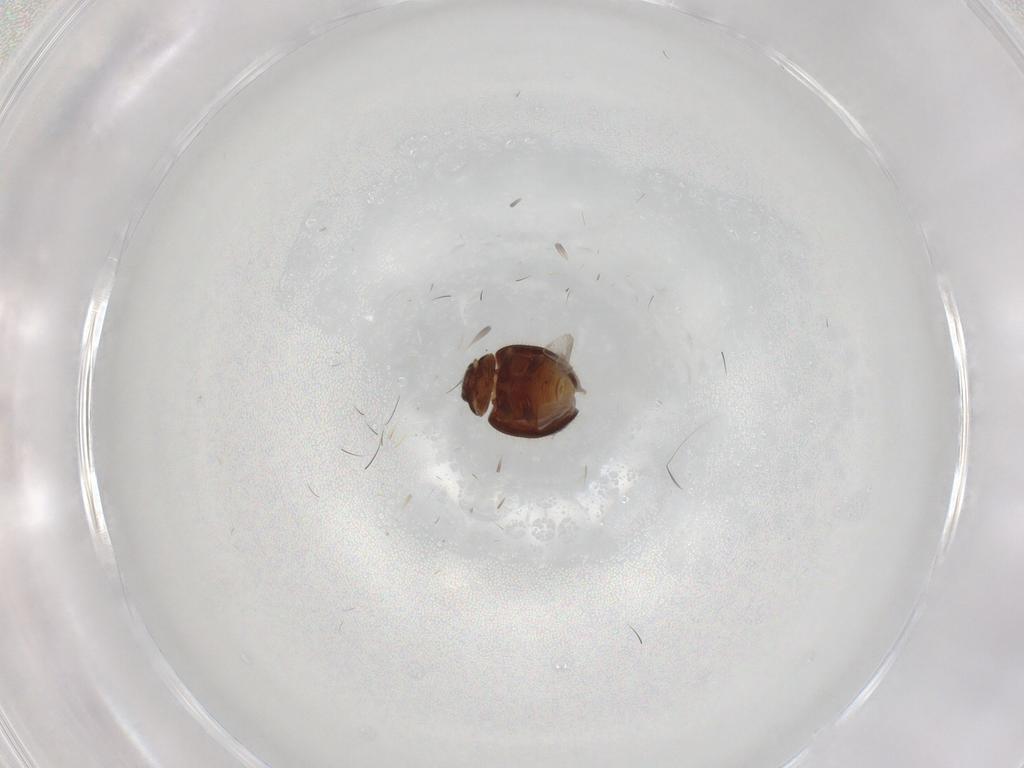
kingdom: Animalia
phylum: Arthropoda
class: Insecta
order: Coleoptera
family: Coccinellidae
